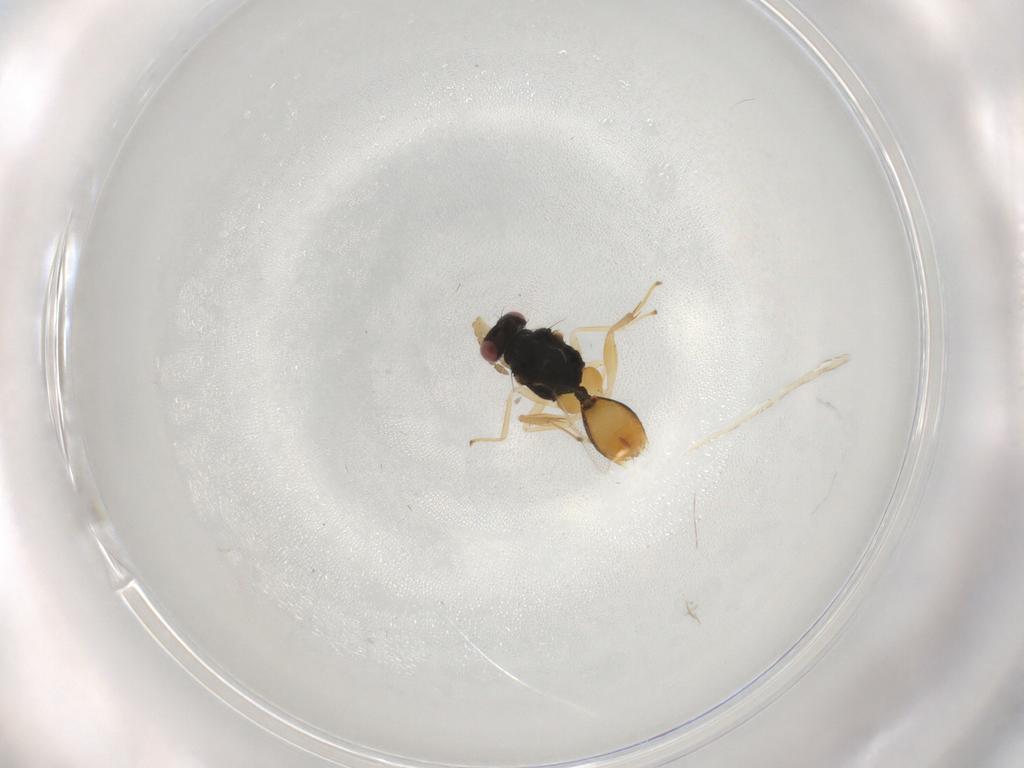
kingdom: Animalia
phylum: Arthropoda
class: Insecta
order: Hymenoptera
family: Eulophidae
